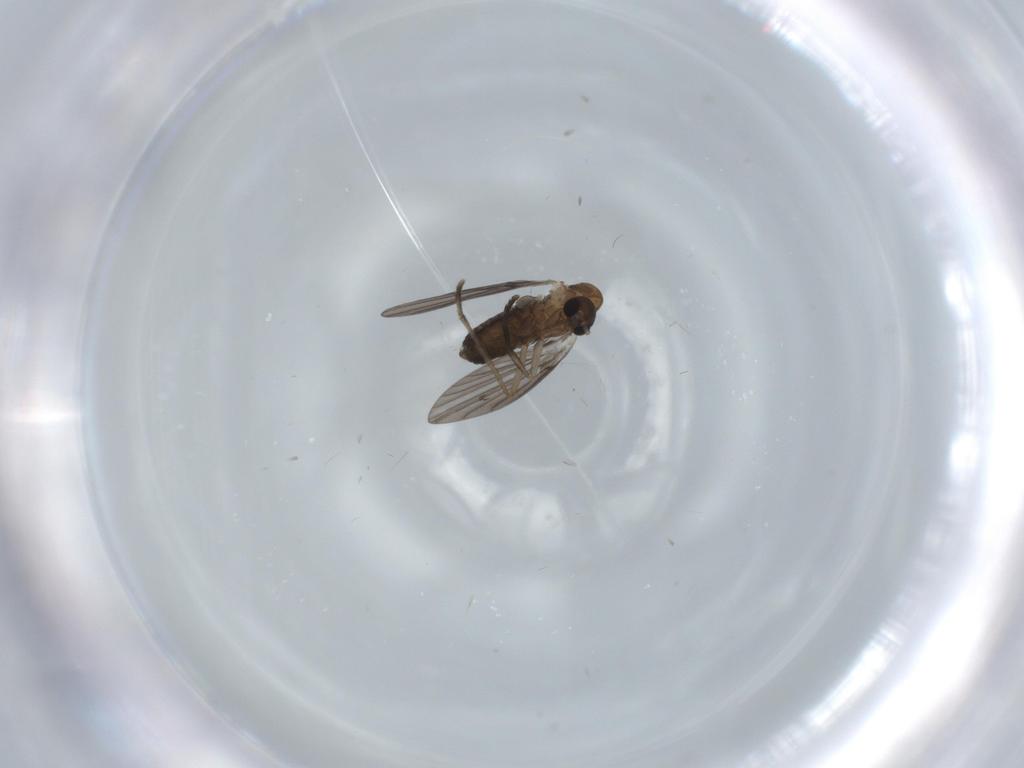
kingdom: Animalia
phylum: Arthropoda
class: Insecta
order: Diptera
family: Psychodidae
